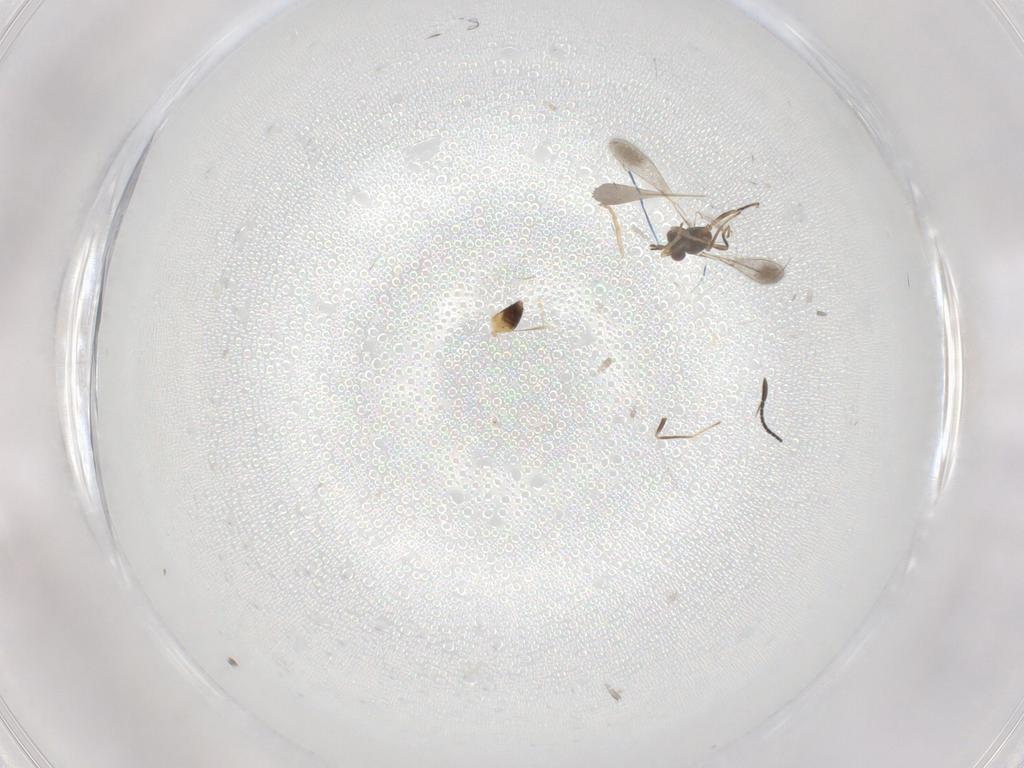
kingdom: Animalia
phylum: Arthropoda
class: Insecta
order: Hymenoptera
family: Mymaridae
